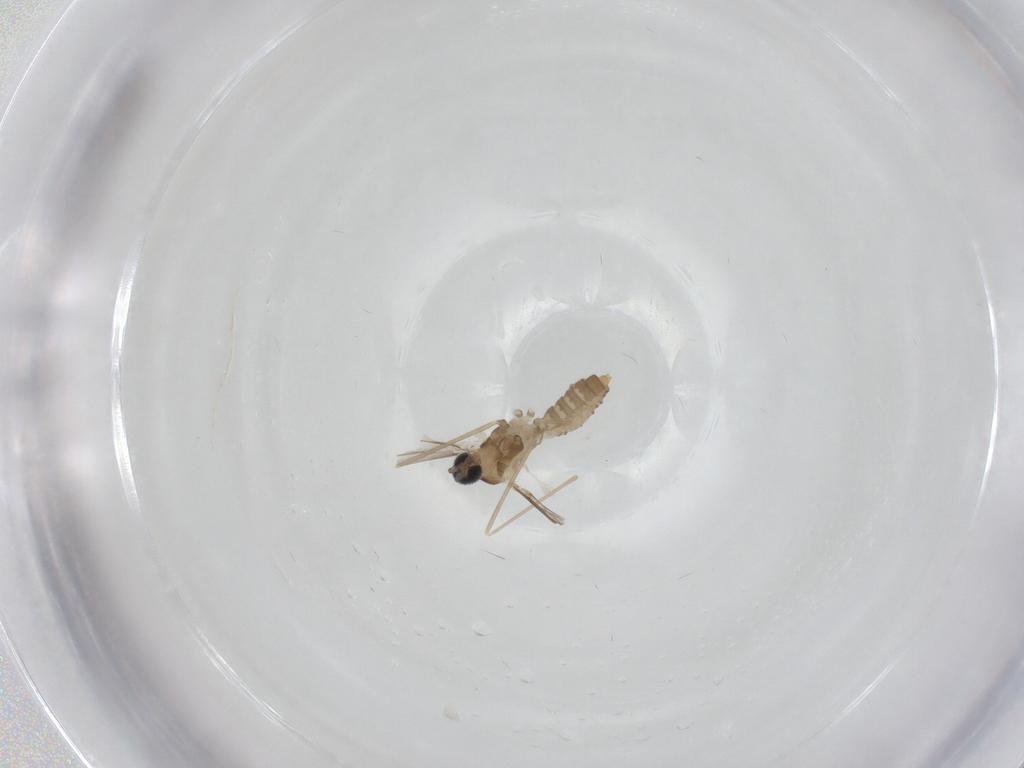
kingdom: Animalia
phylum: Arthropoda
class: Insecta
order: Diptera
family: Cecidomyiidae
